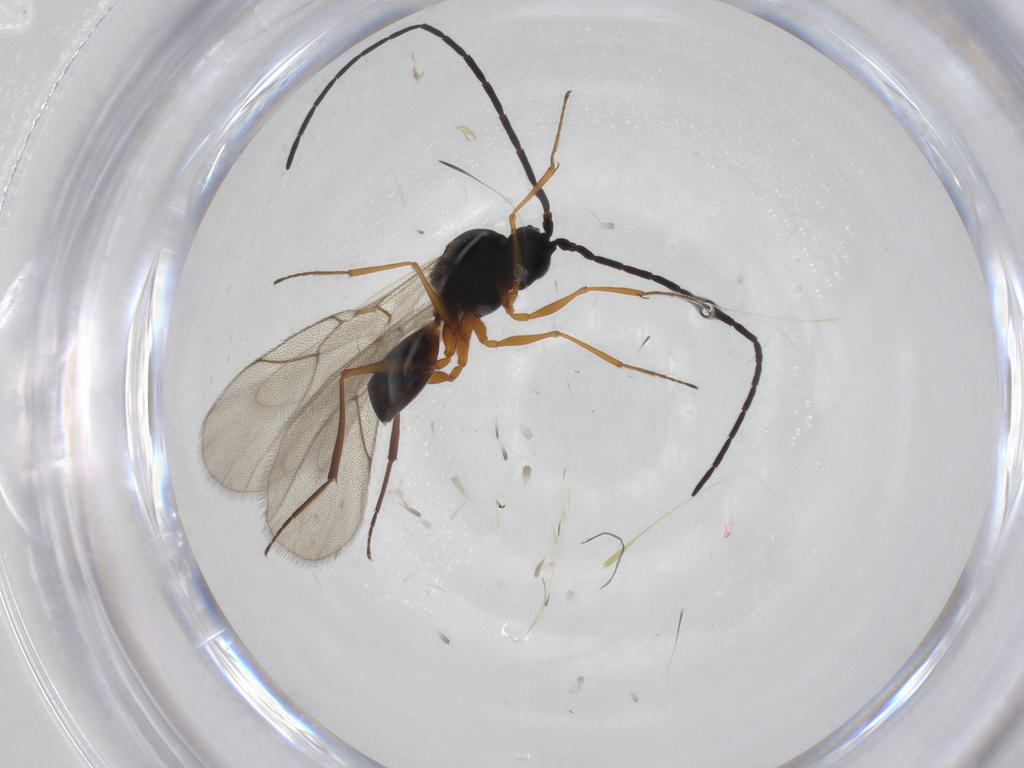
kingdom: Animalia
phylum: Arthropoda
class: Insecta
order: Hymenoptera
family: Figitidae
